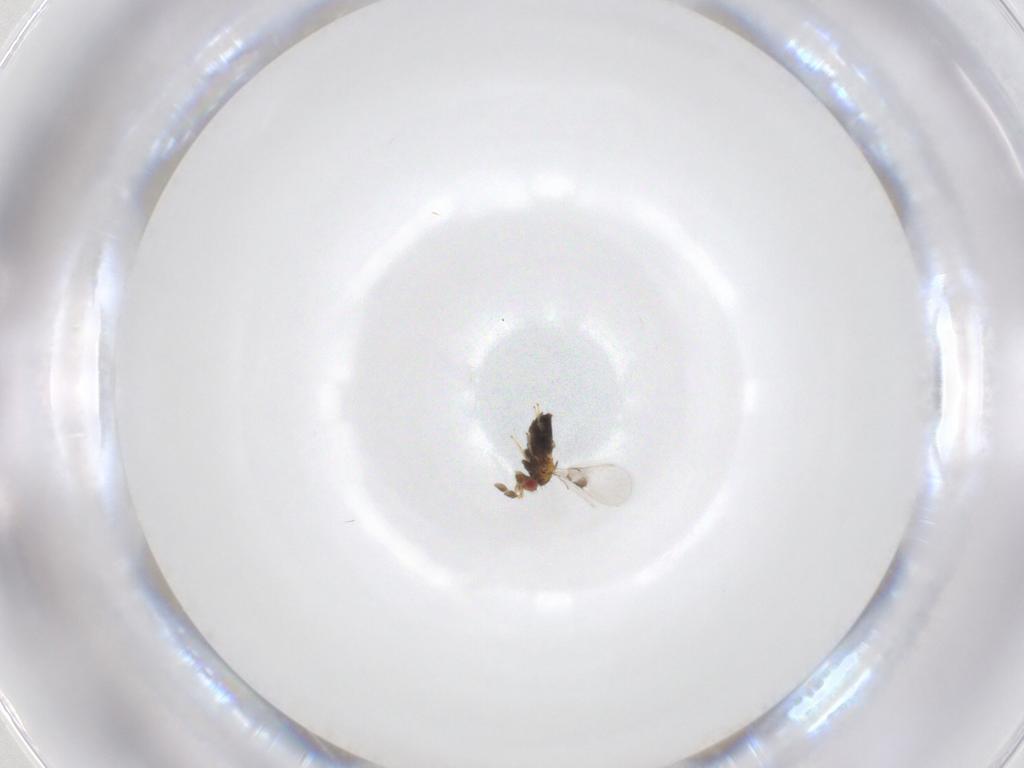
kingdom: Animalia
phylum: Arthropoda
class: Insecta
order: Hymenoptera
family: Trichogrammatidae
